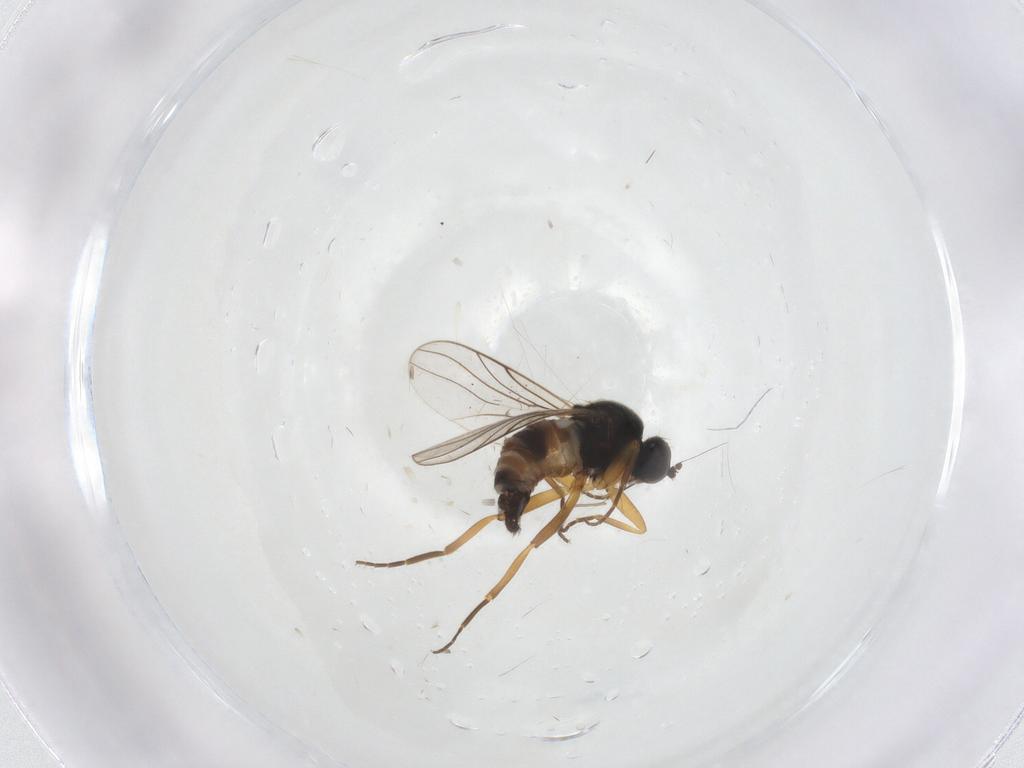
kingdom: Animalia
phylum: Arthropoda
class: Insecta
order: Diptera
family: Hybotidae
